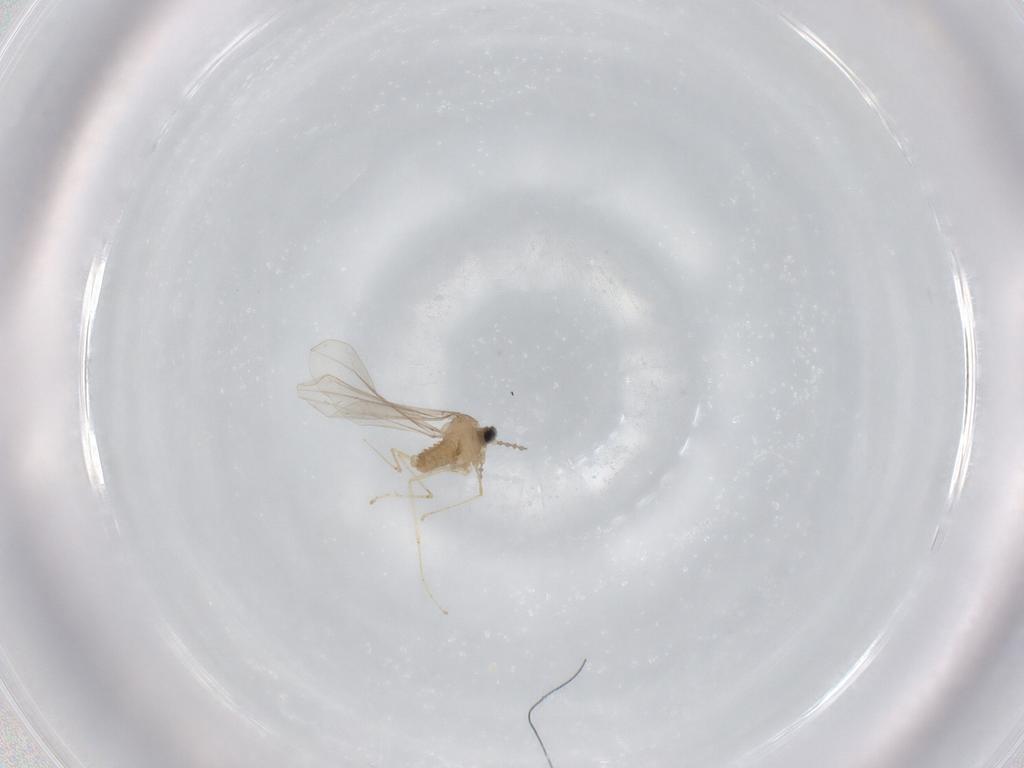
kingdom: Animalia
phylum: Arthropoda
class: Insecta
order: Diptera
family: Cecidomyiidae
